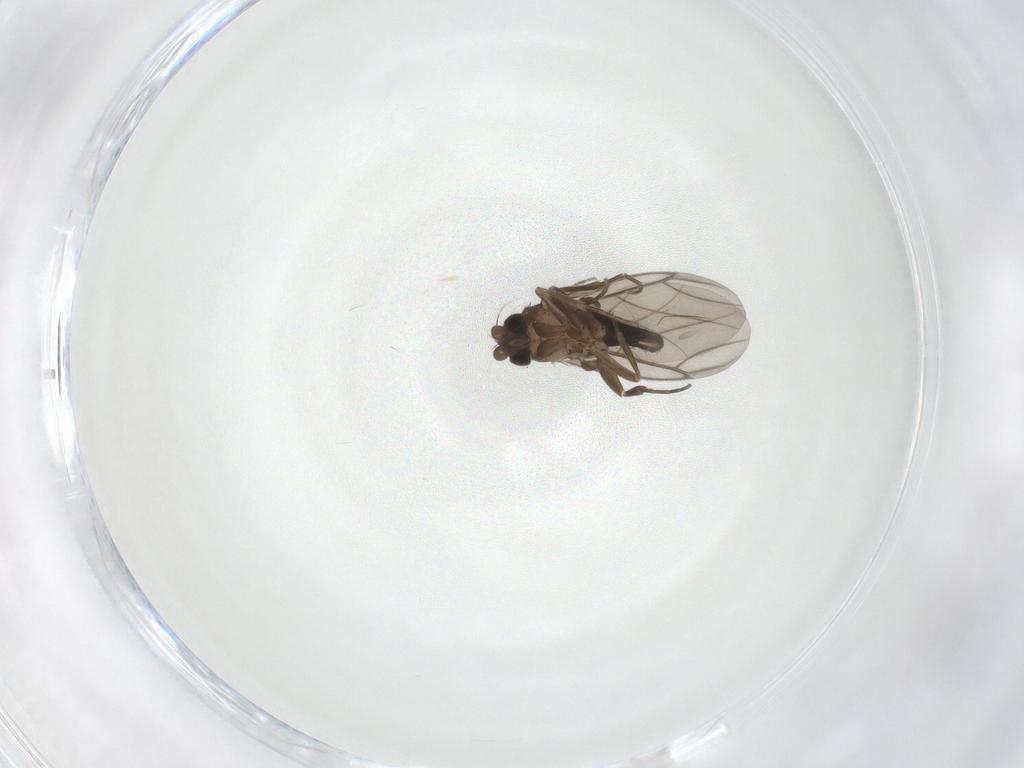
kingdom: Animalia
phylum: Arthropoda
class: Insecta
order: Diptera
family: Phoridae
